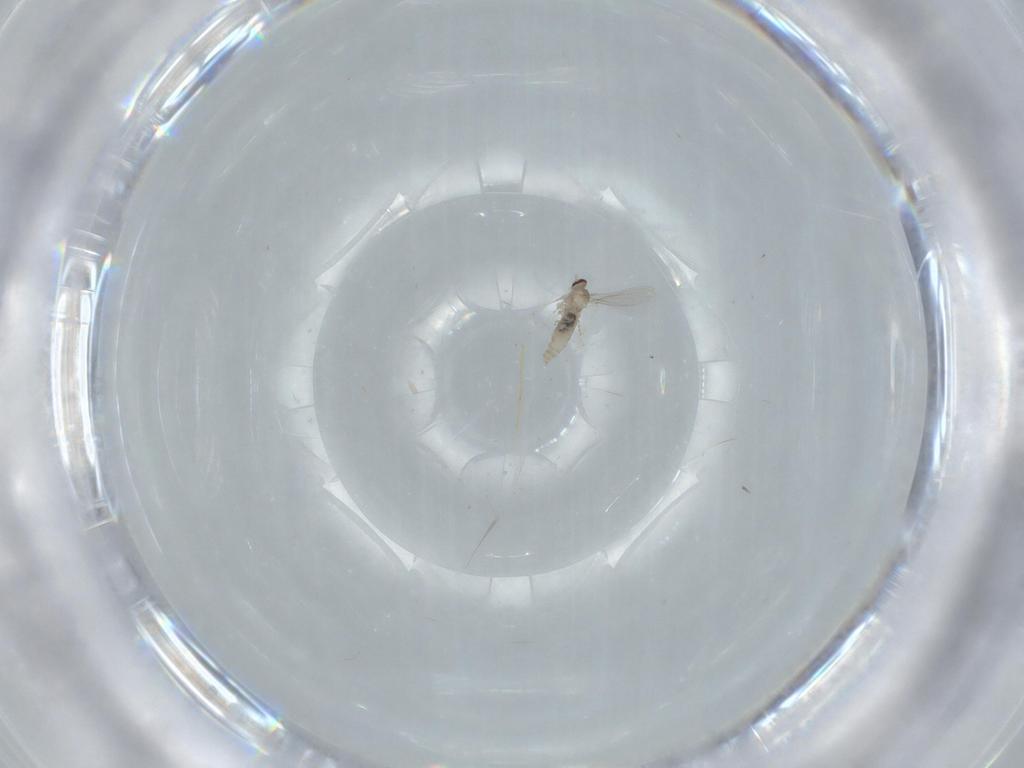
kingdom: Animalia
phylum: Arthropoda
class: Insecta
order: Diptera
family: Cecidomyiidae
